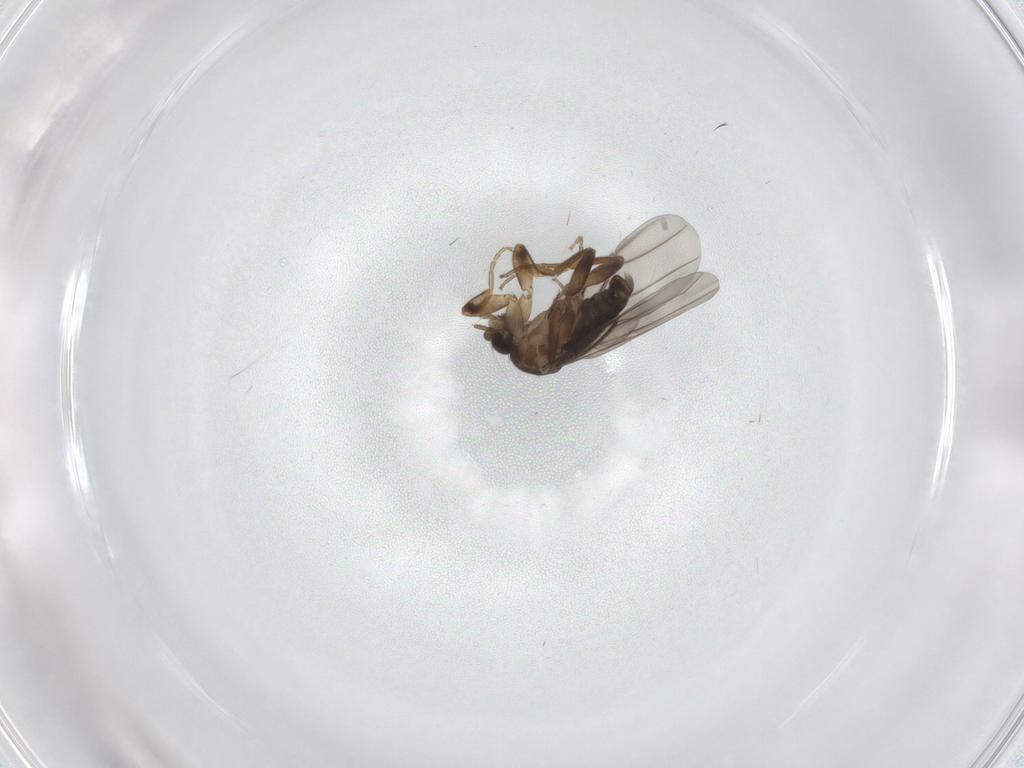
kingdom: Animalia
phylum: Arthropoda
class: Insecta
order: Diptera
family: Phoridae
